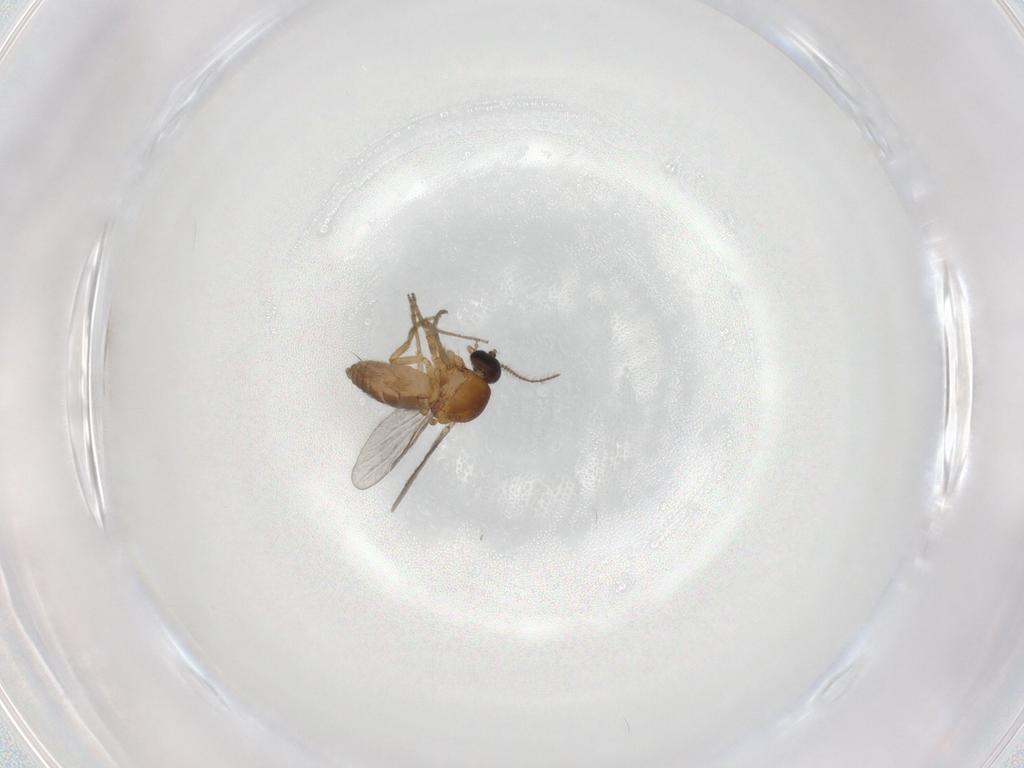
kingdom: Animalia
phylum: Arthropoda
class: Insecta
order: Diptera
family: Ceratopogonidae
